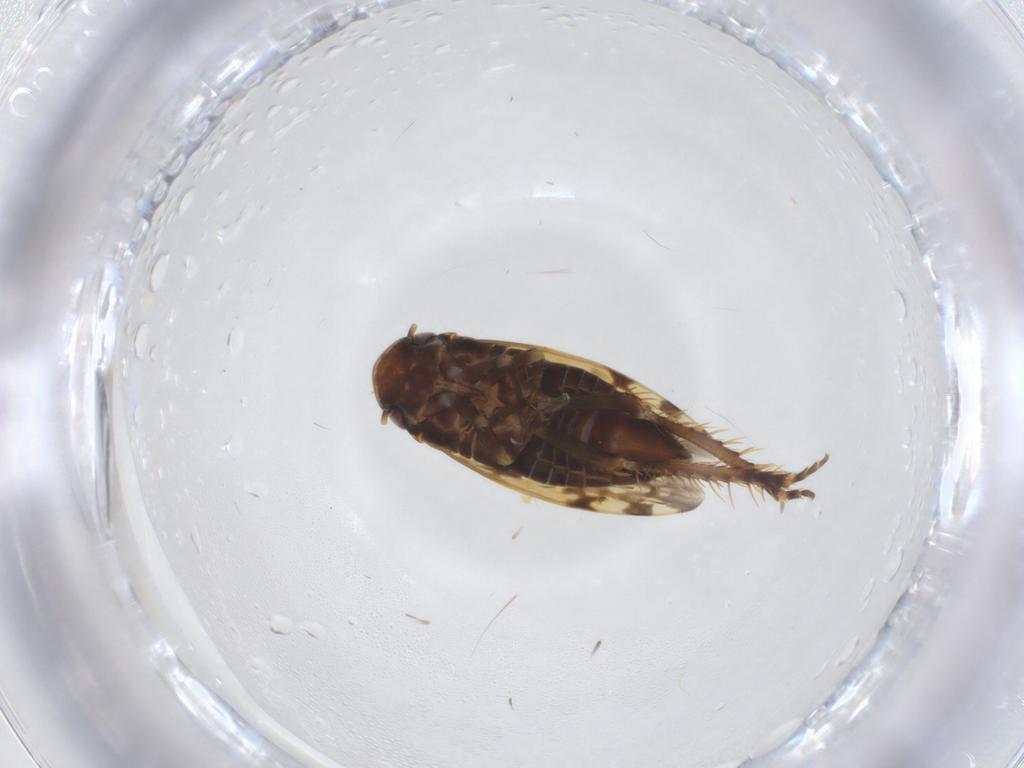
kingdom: Animalia
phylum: Arthropoda
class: Insecta
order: Hemiptera
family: Cicadellidae
